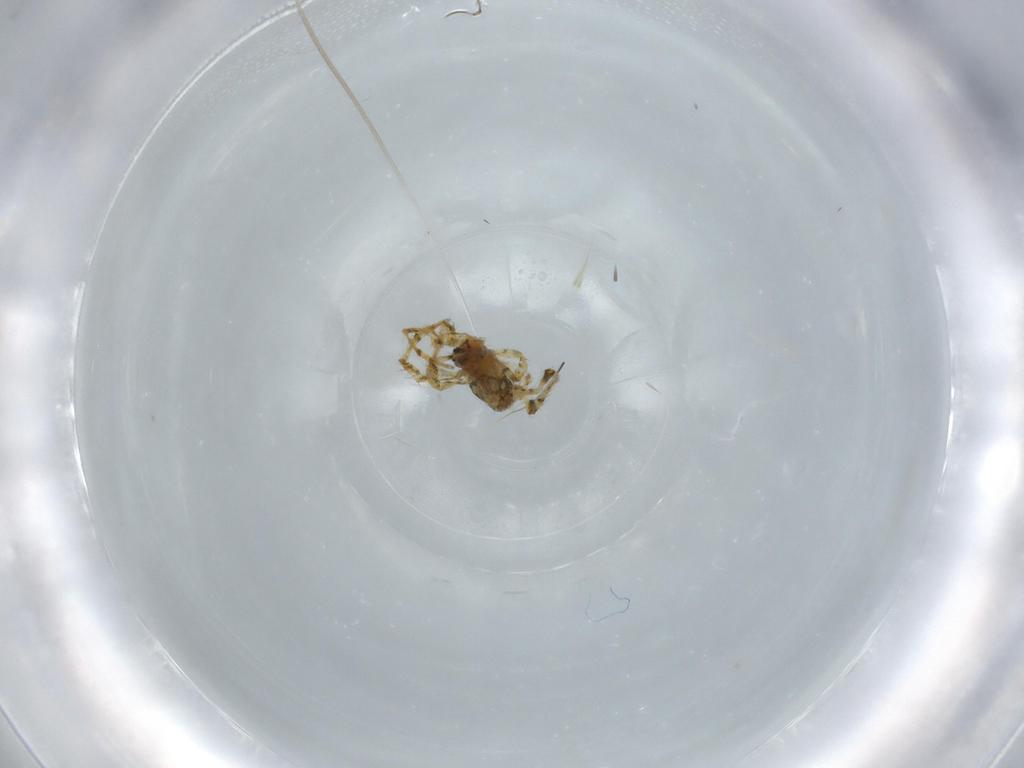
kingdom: Animalia
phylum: Arthropoda
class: Arachnida
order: Araneae
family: Theridiidae
